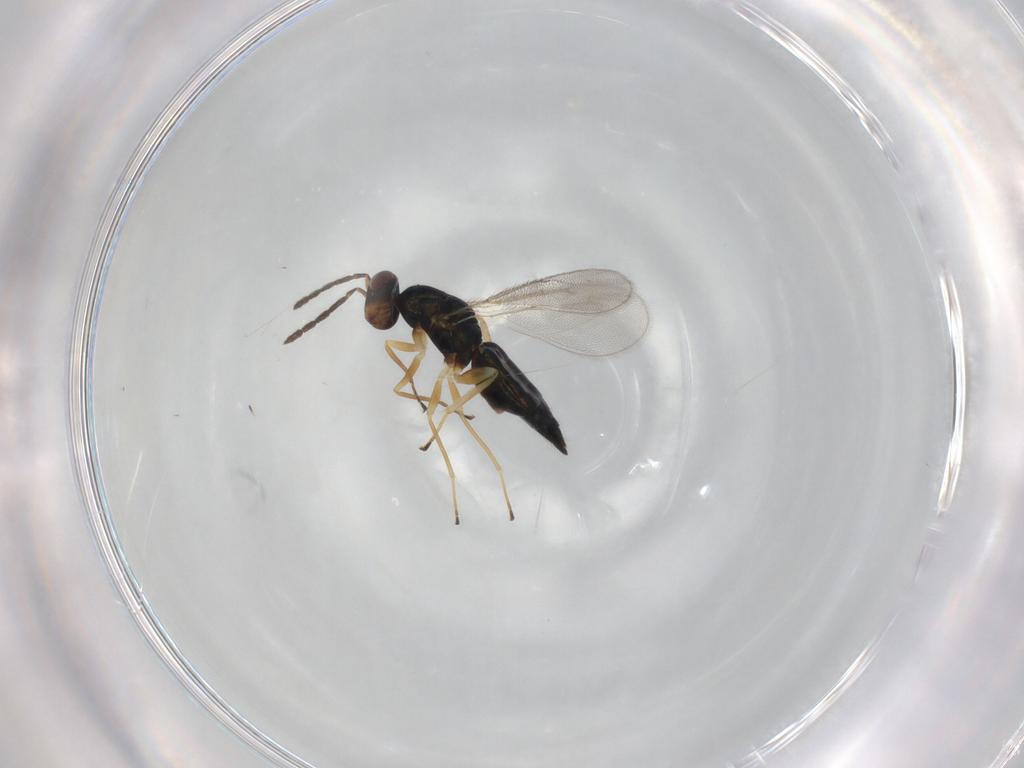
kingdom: Animalia
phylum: Arthropoda
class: Insecta
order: Hymenoptera
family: Eulophidae
